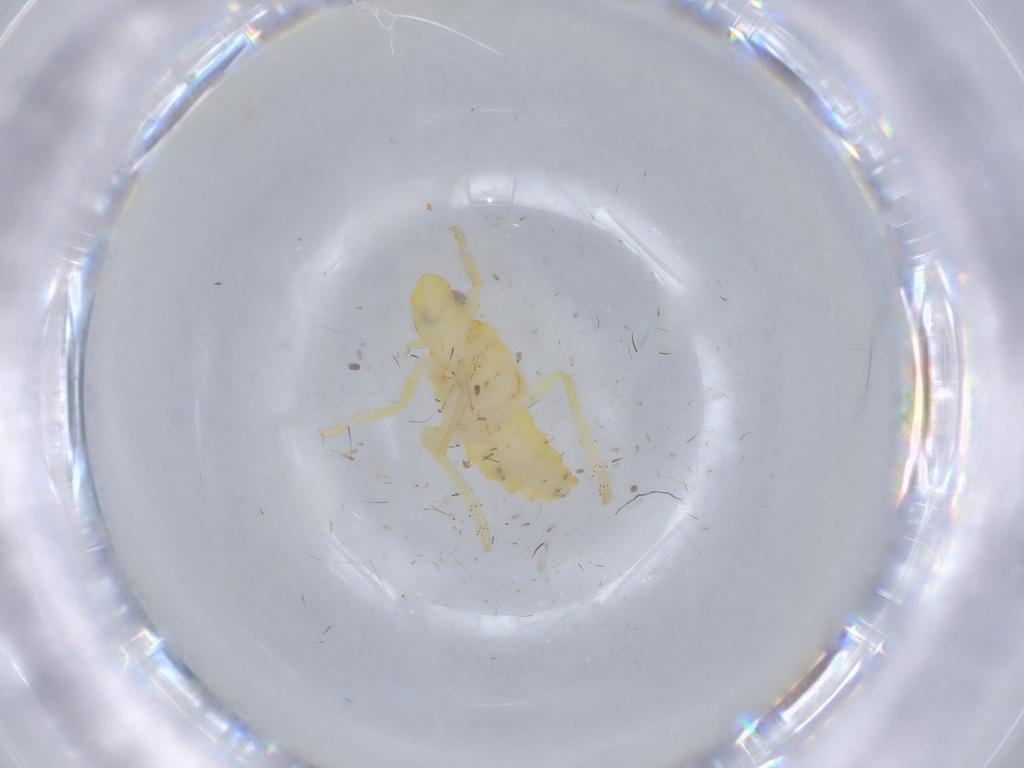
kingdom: Animalia
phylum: Arthropoda
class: Insecta
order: Hemiptera
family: Tropiduchidae
